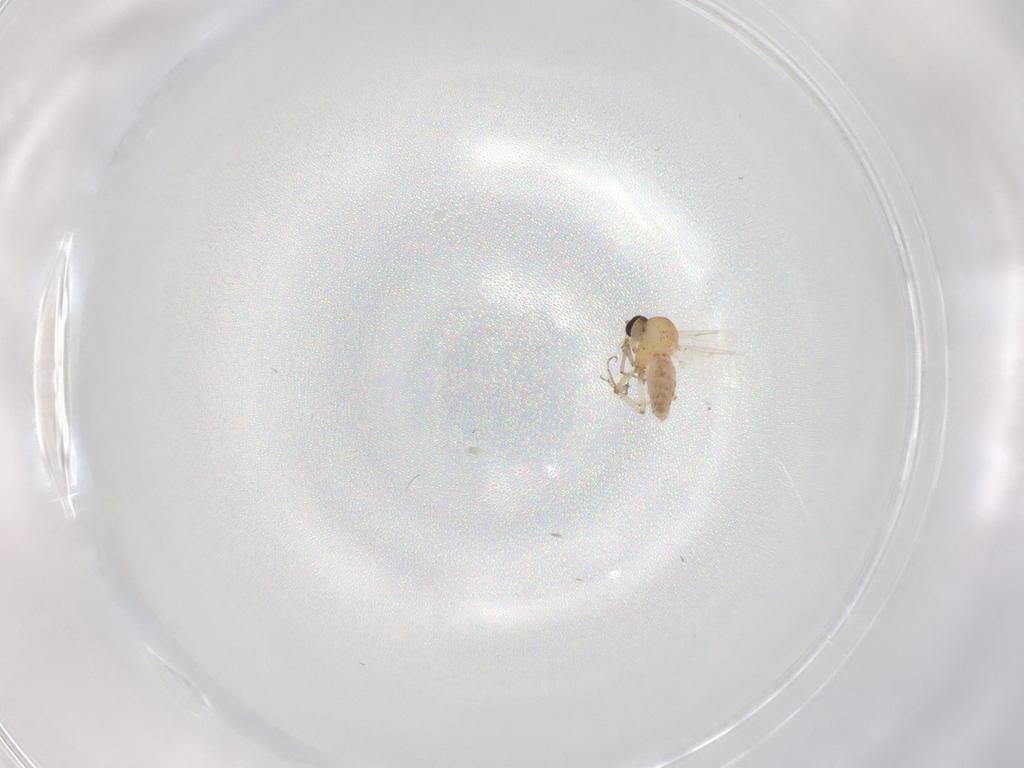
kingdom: Animalia
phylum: Arthropoda
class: Insecta
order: Diptera
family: Ceratopogonidae
